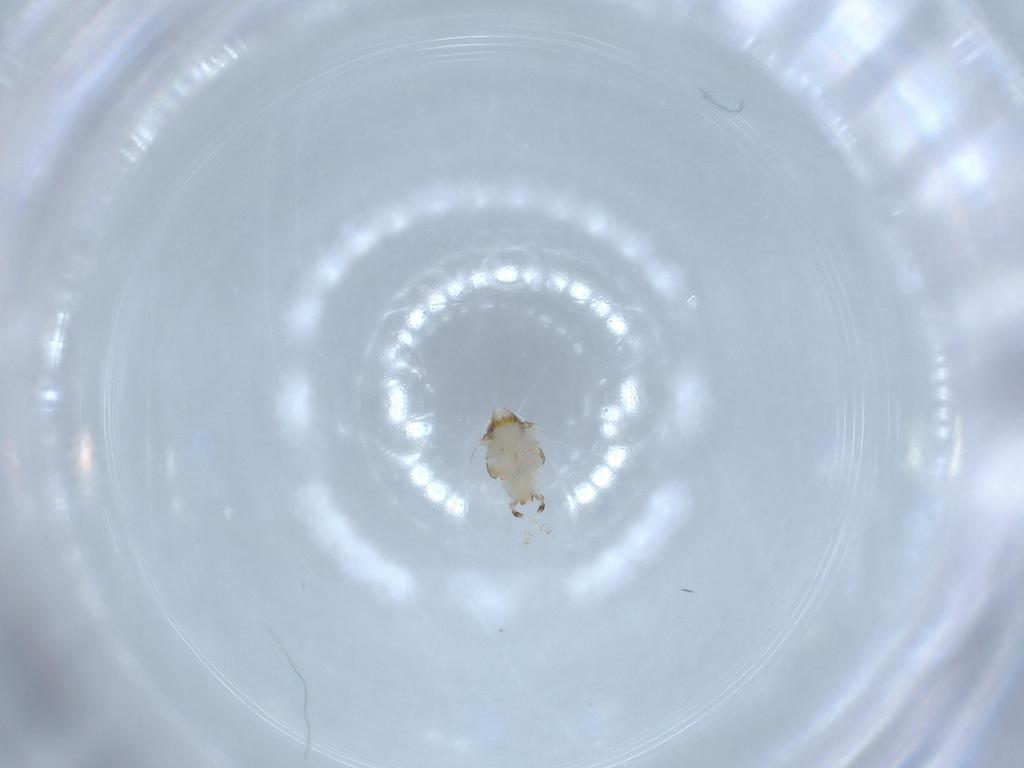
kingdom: Animalia
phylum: Arthropoda
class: Insecta
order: Hemiptera
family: Nogodinidae
